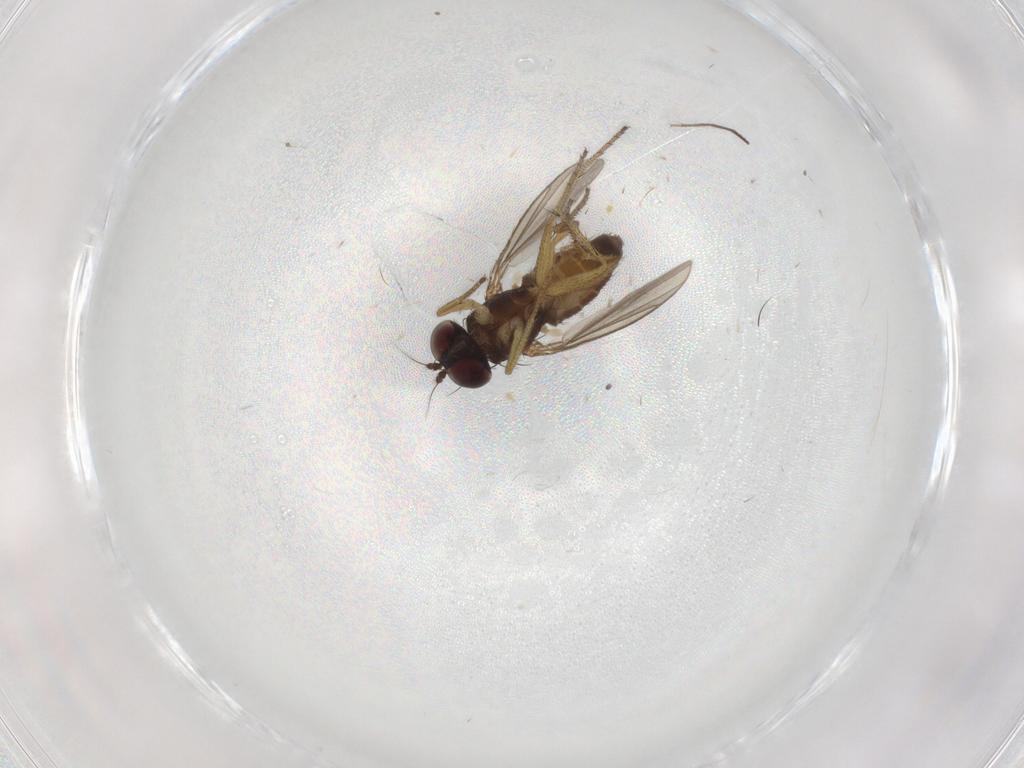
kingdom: Animalia
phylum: Arthropoda
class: Insecta
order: Diptera
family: Dolichopodidae
